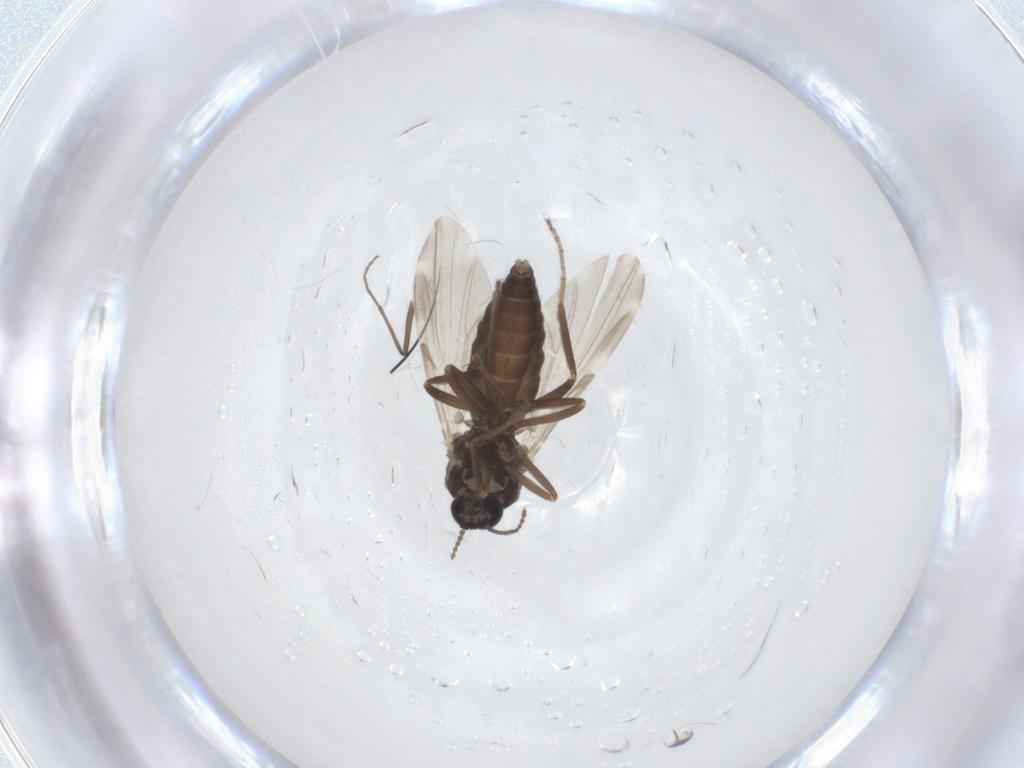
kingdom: Animalia
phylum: Arthropoda
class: Insecta
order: Diptera
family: Ceratopogonidae
